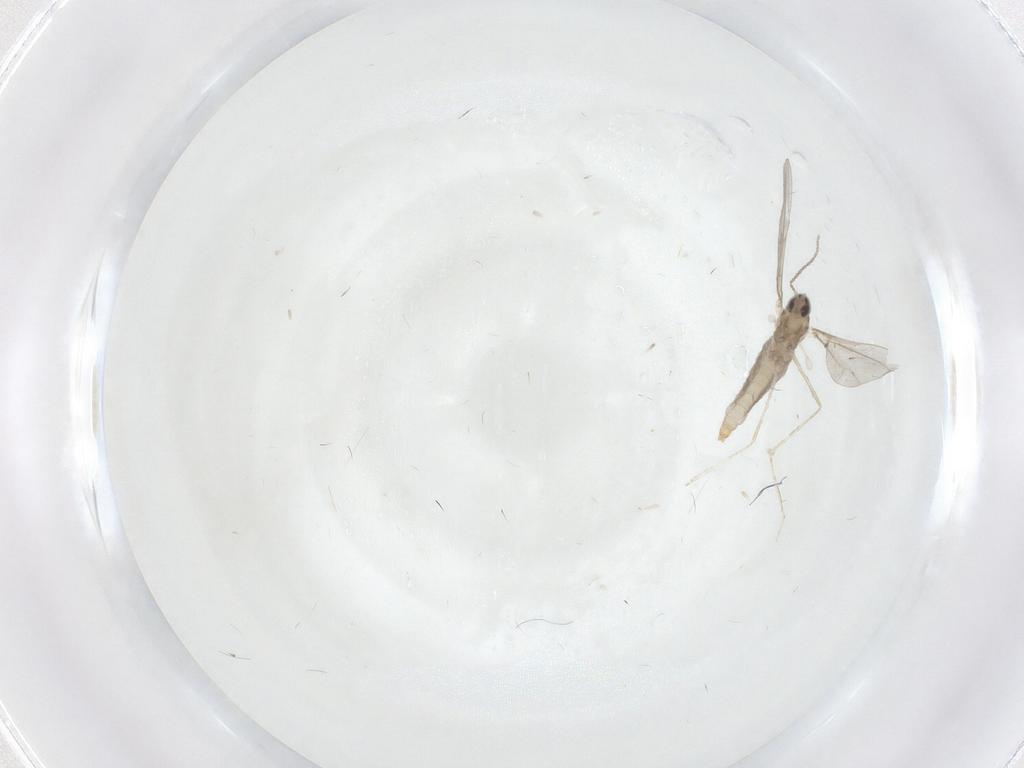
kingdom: Animalia
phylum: Arthropoda
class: Insecta
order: Diptera
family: Cecidomyiidae
